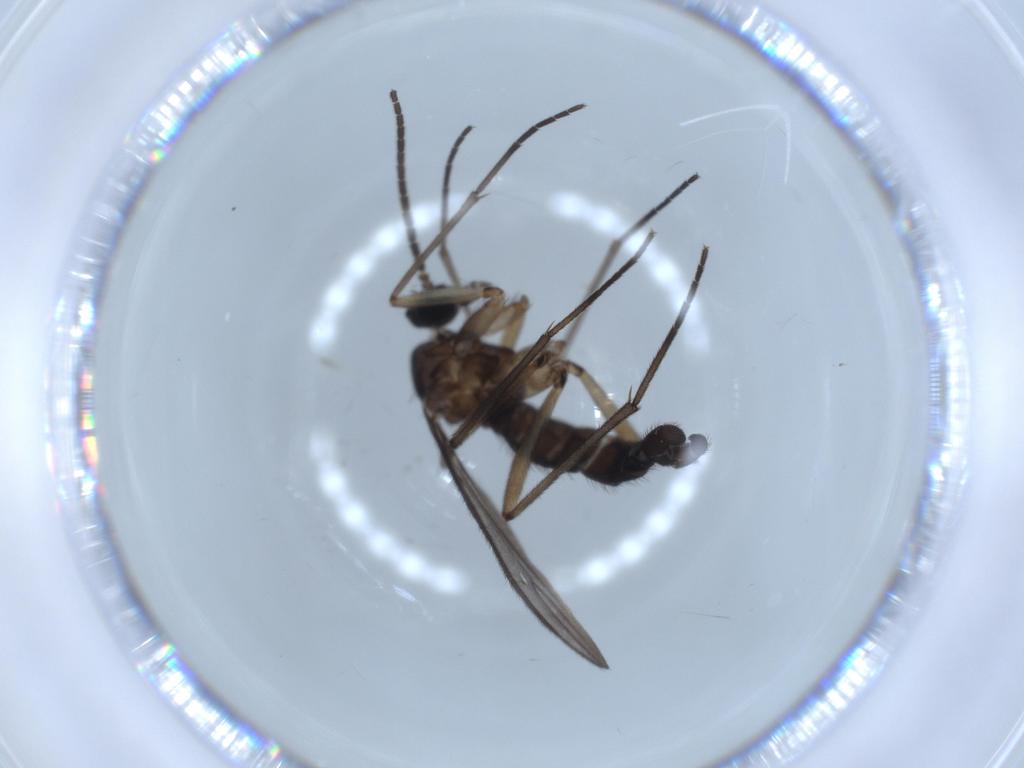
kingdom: Animalia
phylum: Arthropoda
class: Insecta
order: Diptera
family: Sciaridae
